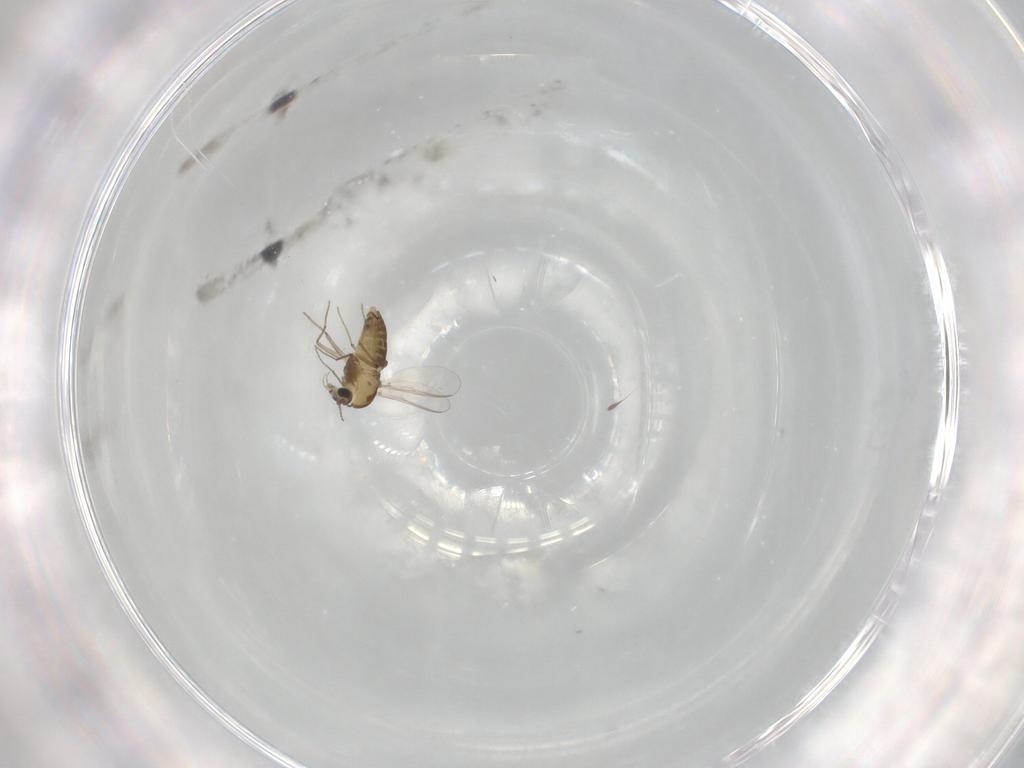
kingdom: Animalia
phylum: Arthropoda
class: Insecta
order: Diptera
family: Chironomidae
